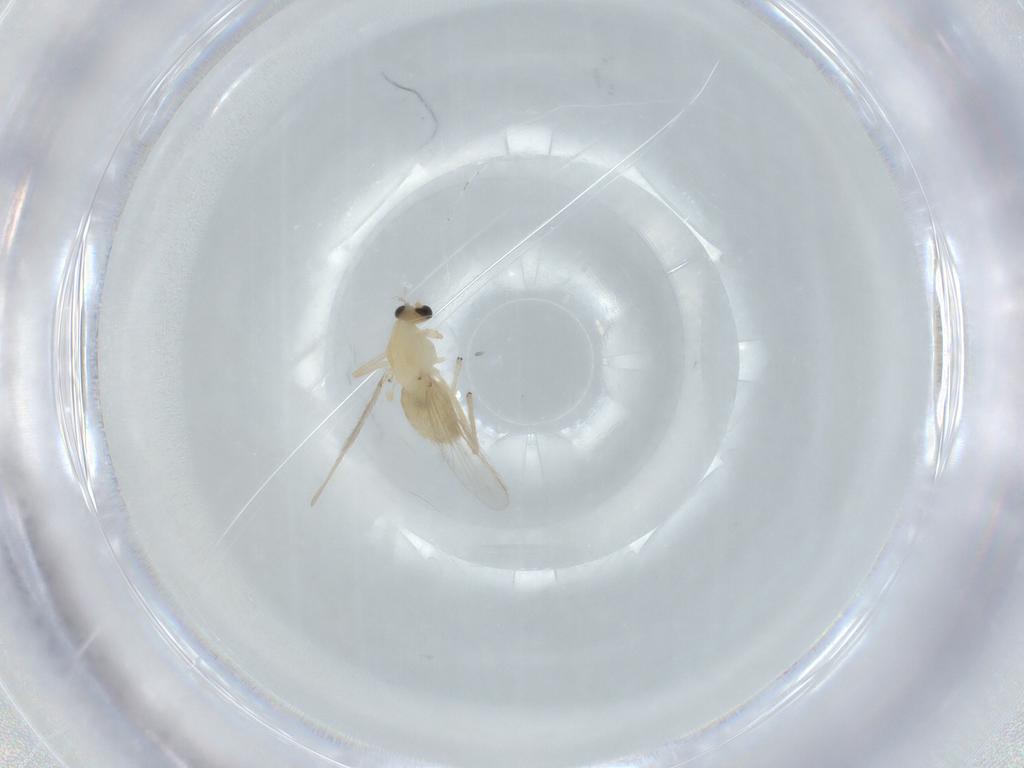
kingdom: Animalia
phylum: Arthropoda
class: Insecta
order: Diptera
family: Chironomidae
